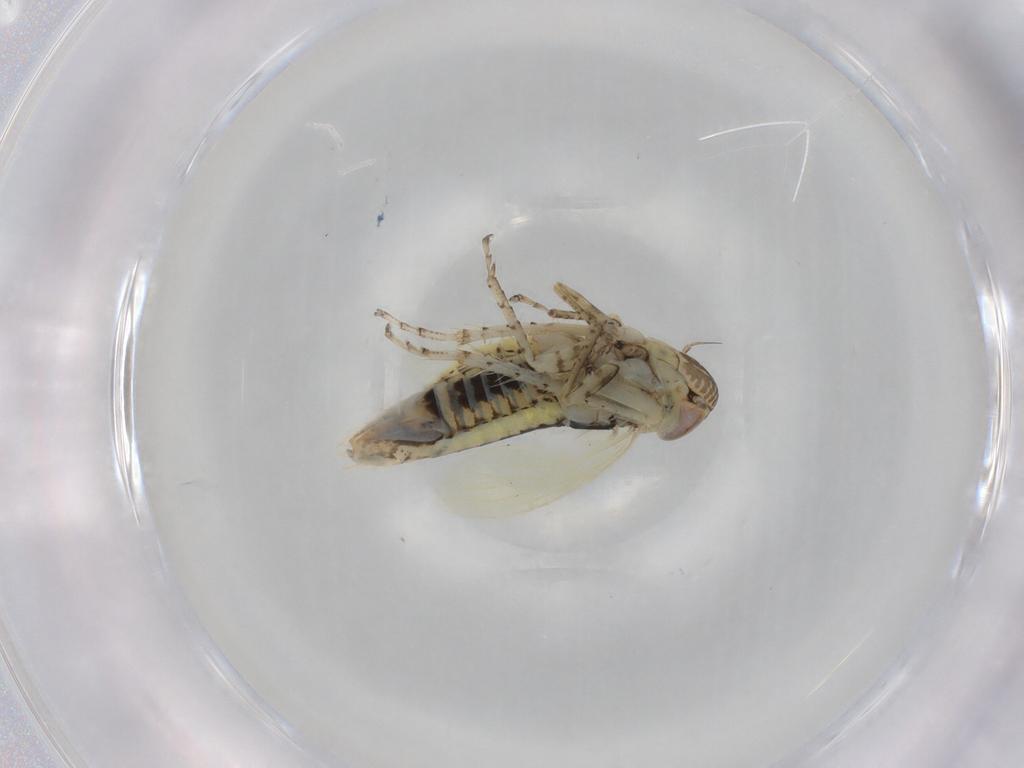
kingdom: Animalia
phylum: Arthropoda
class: Insecta
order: Hemiptera
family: Cicadellidae
